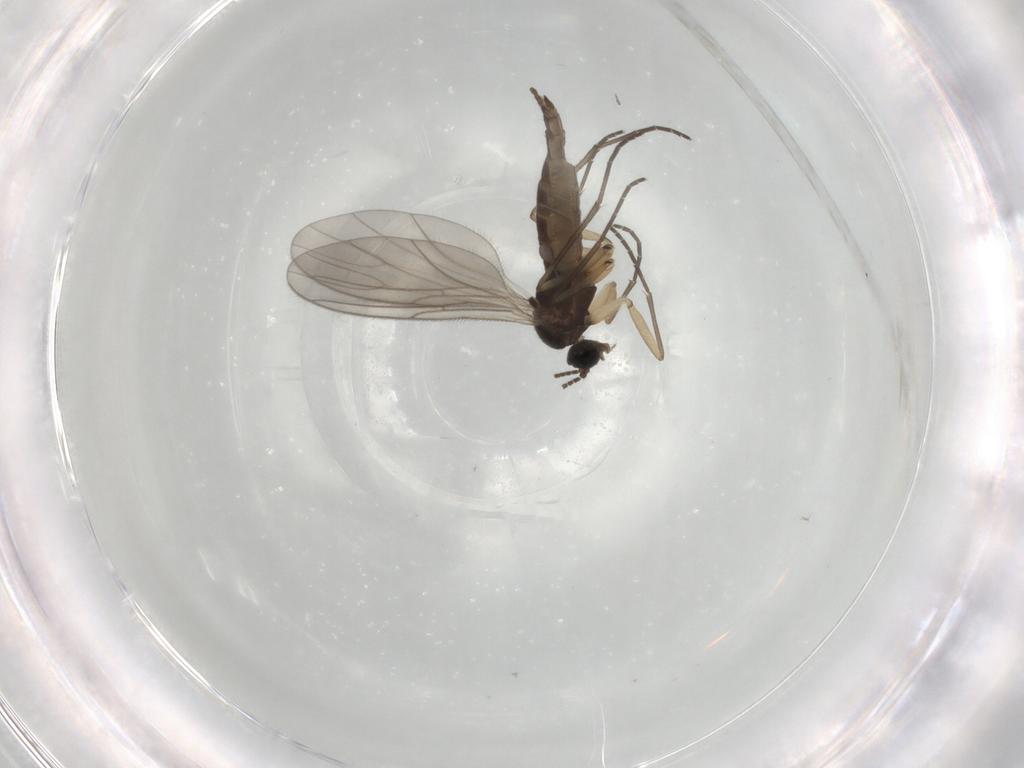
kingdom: Animalia
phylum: Arthropoda
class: Insecta
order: Diptera
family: Sciaridae
